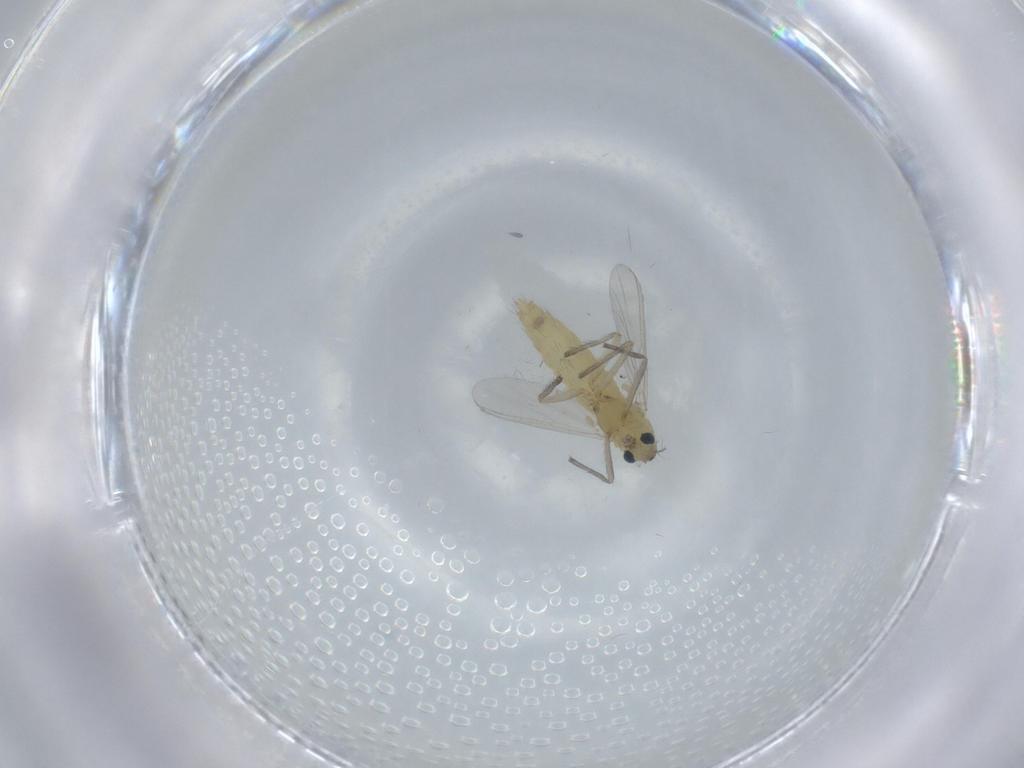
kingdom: Animalia
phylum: Arthropoda
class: Insecta
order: Diptera
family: Chironomidae
